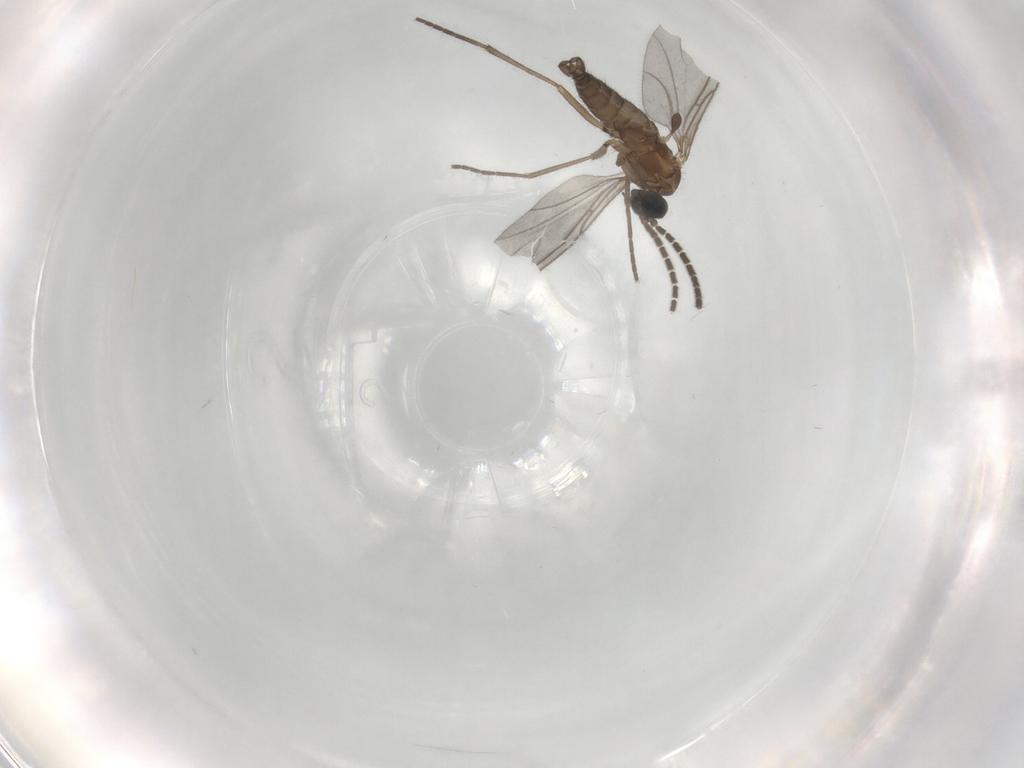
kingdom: Animalia
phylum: Arthropoda
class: Insecta
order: Diptera
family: Sciaridae
